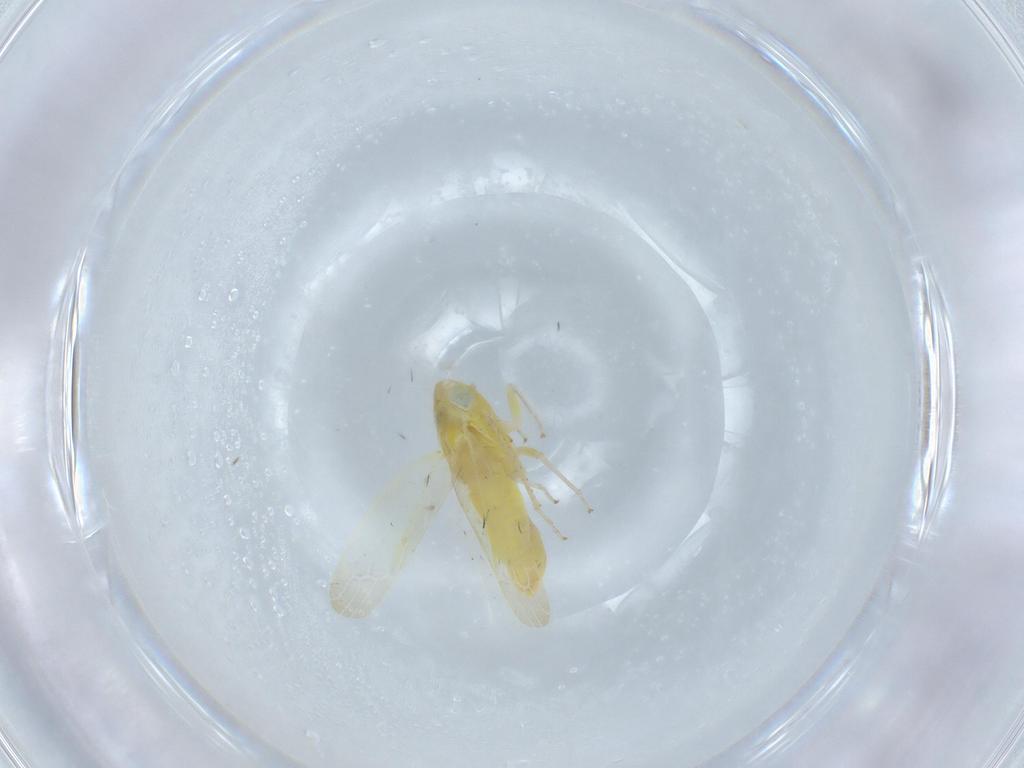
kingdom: Animalia
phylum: Arthropoda
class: Insecta
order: Hemiptera
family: Cicadellidae
